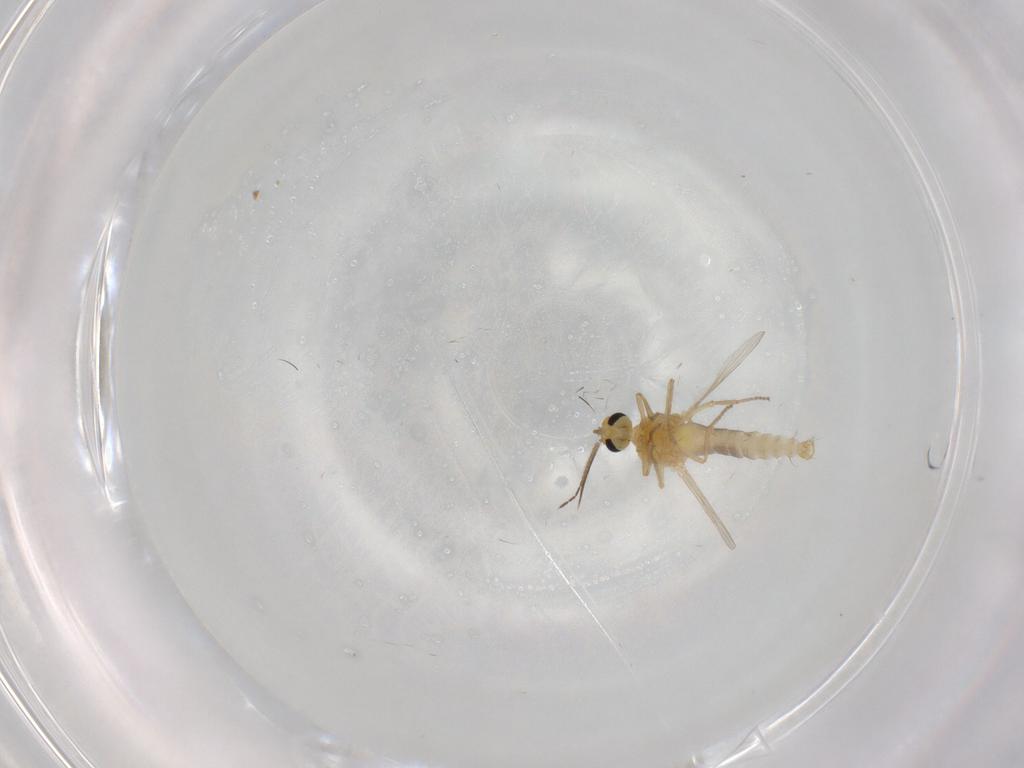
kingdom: Animalia
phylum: Arthropoda
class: Insecta
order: Diptera
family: Ceratopogonidae
